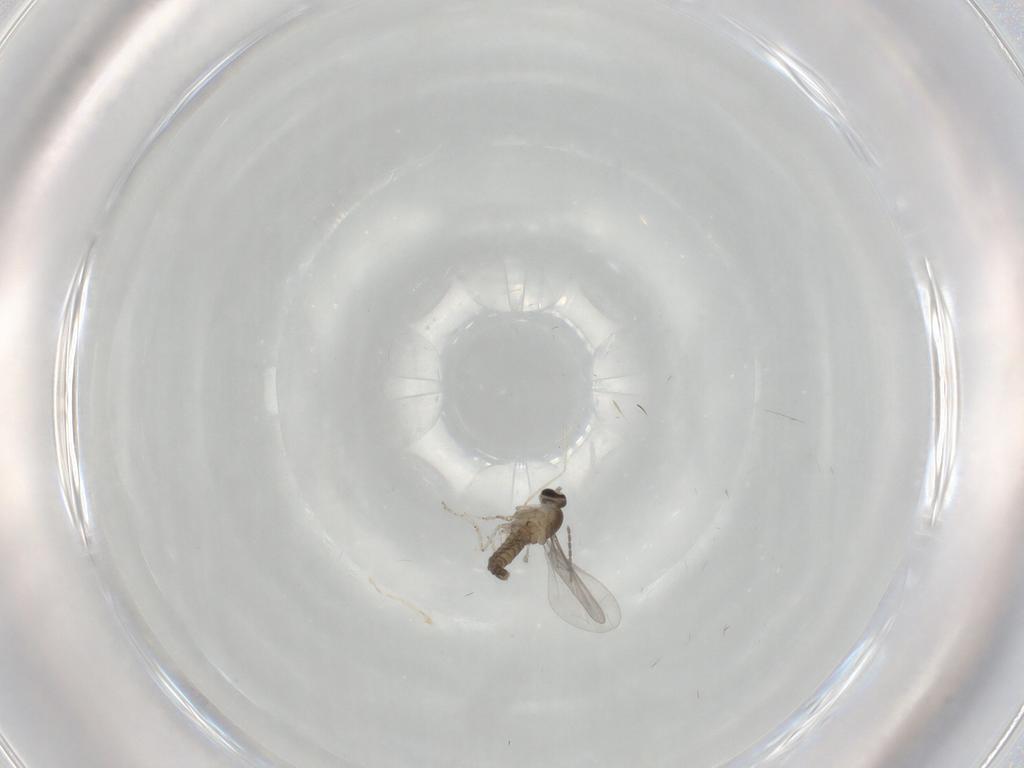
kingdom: Animalia
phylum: Arthropoda
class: Insecta
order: Diptera
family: Cecidomyiidae
